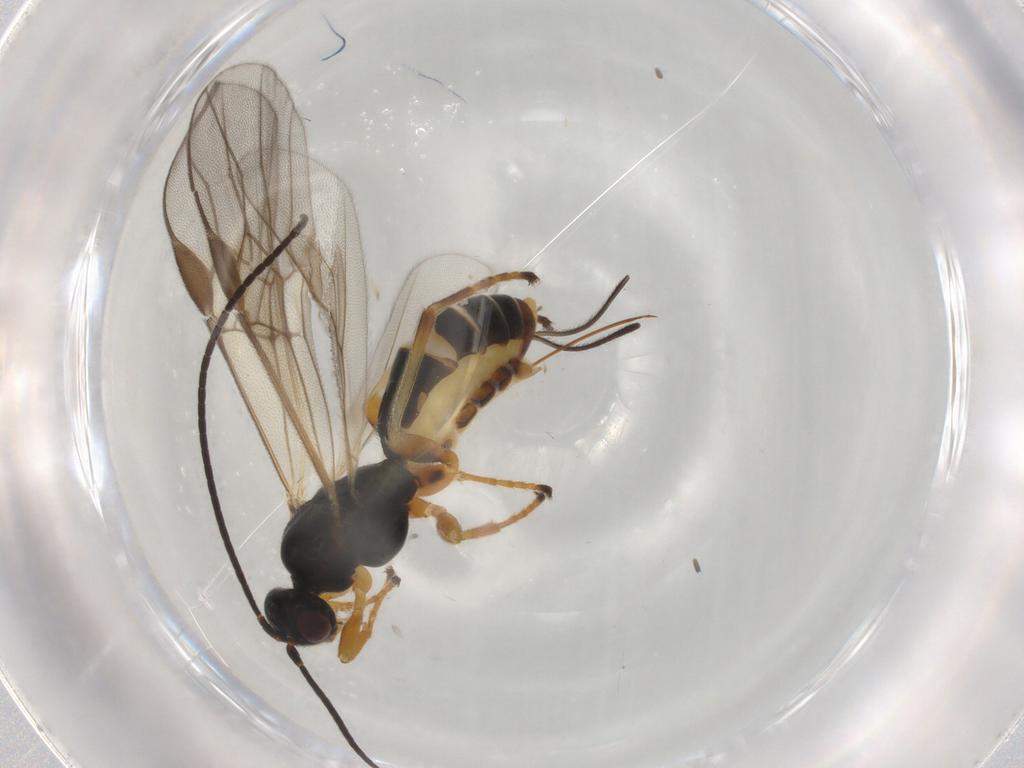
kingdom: Animalia
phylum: Arthropoda
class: Insecta
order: Hymenoptera
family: Braconidae
